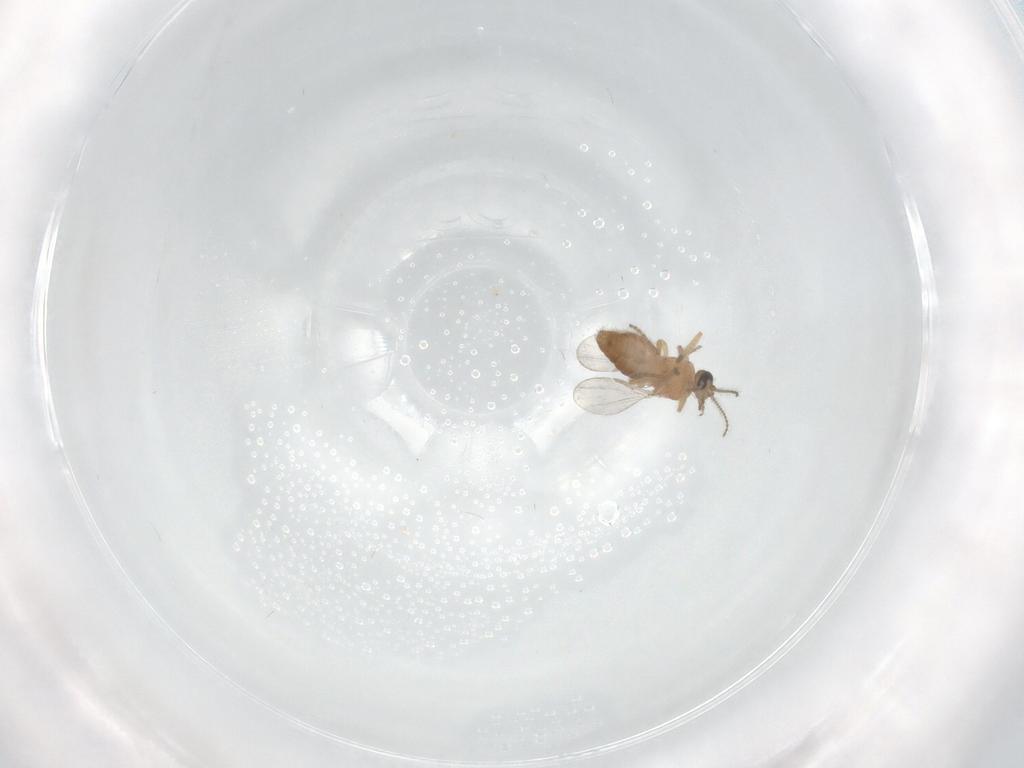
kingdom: Animalia
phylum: Arthropoda
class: Insecta
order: Diptera
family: Ceratopogonidae
